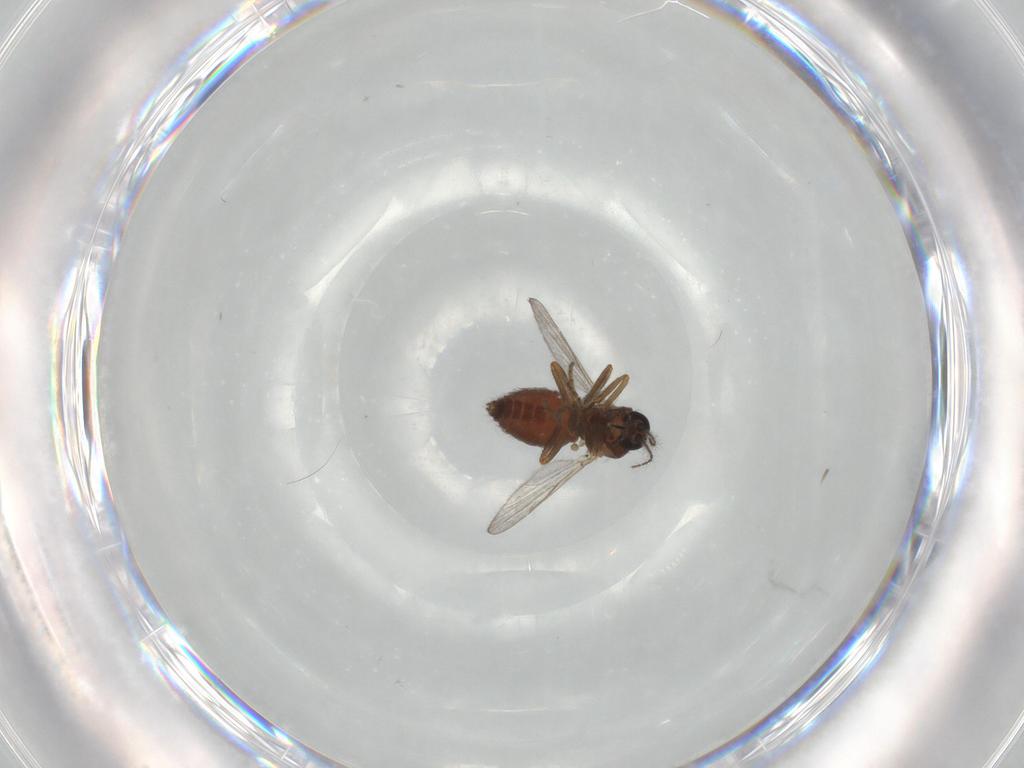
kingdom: Animalia
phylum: Arthropoda
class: Insecta
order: Diptera
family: Ceratopogonidae
